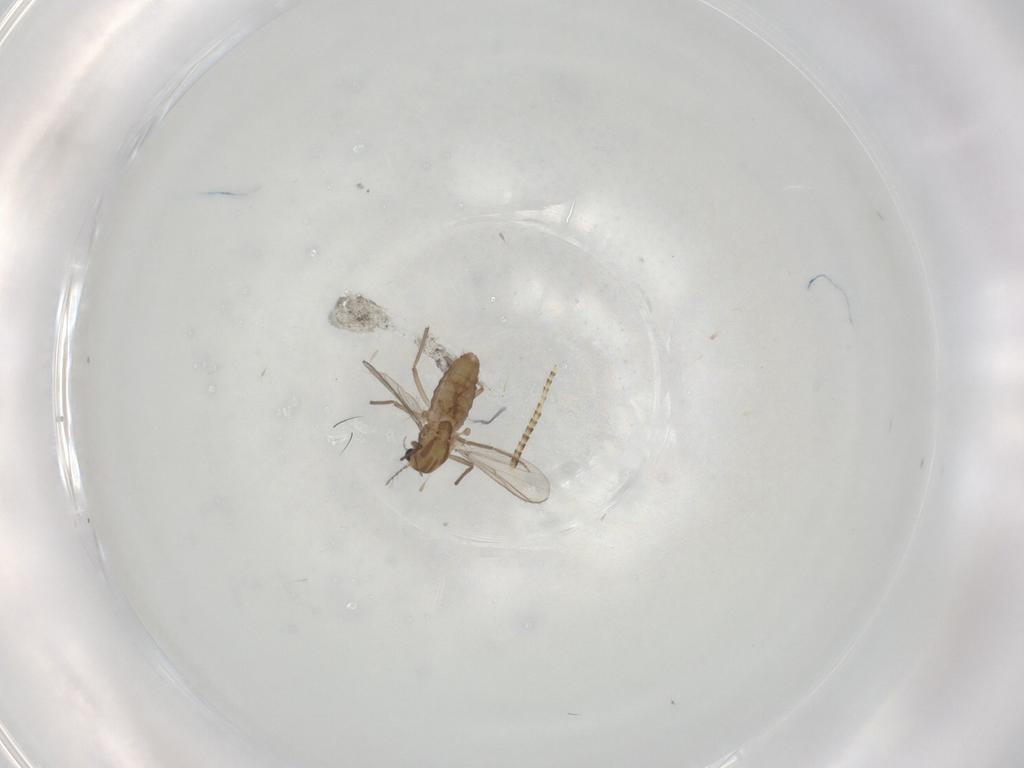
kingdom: Animalia
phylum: Arthropoda
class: Insecta
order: Diptera
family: Chironomidae
